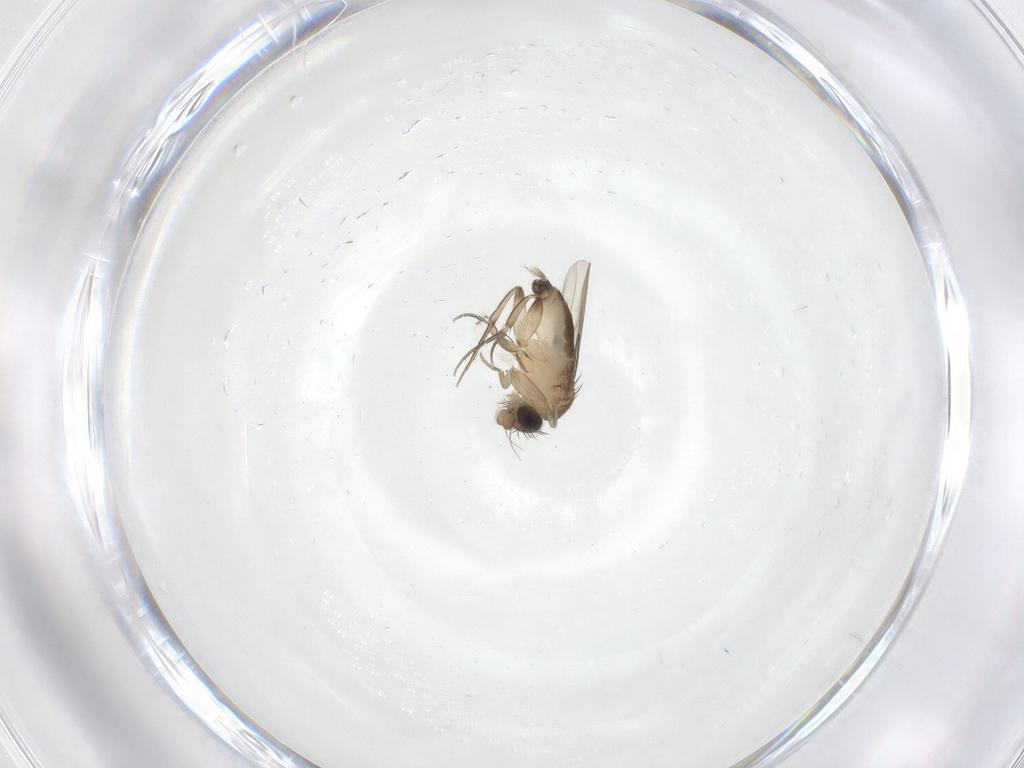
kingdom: Animalia
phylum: Arthropoda
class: Insecta
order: Diptera
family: Phoridae
